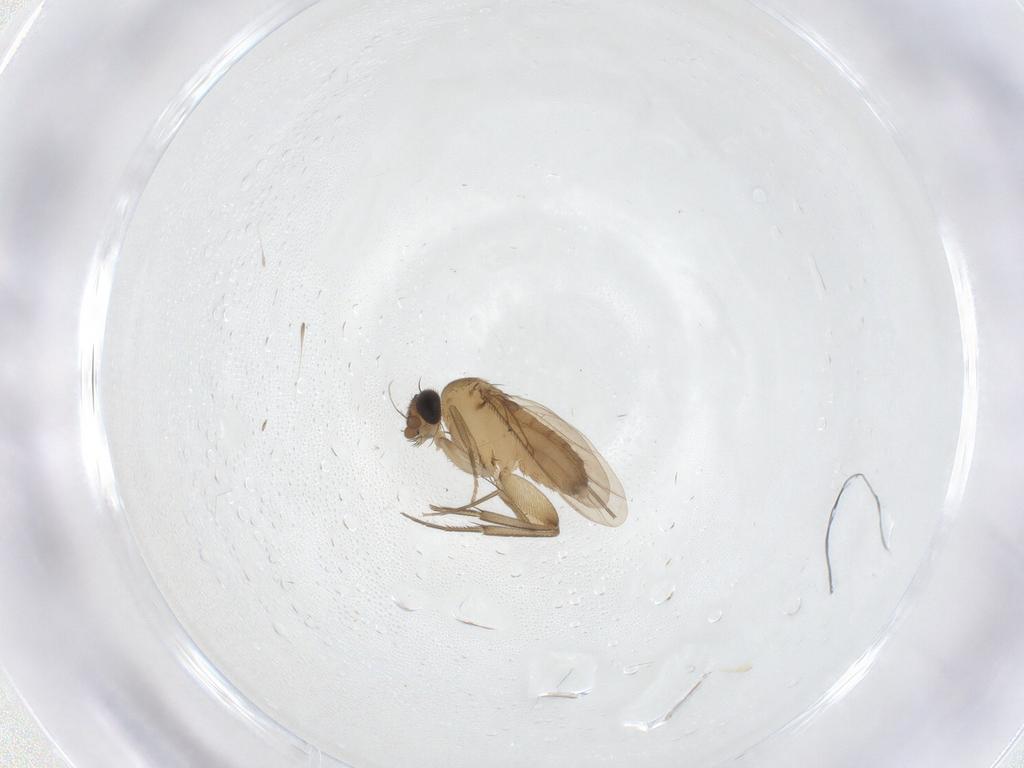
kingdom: Animalia
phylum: Arthropoda
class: Insecta
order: Diptera
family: Phoridae
